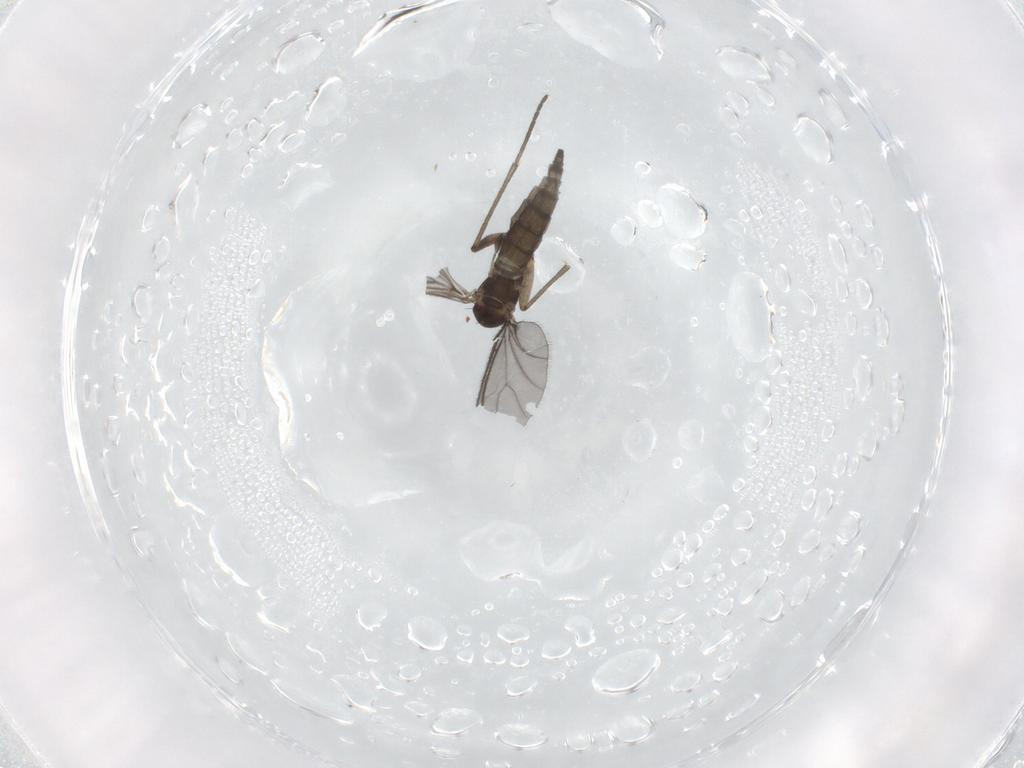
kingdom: Animalia
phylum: Arthropoda
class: Insecta
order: Diptera
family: Sciaridae
